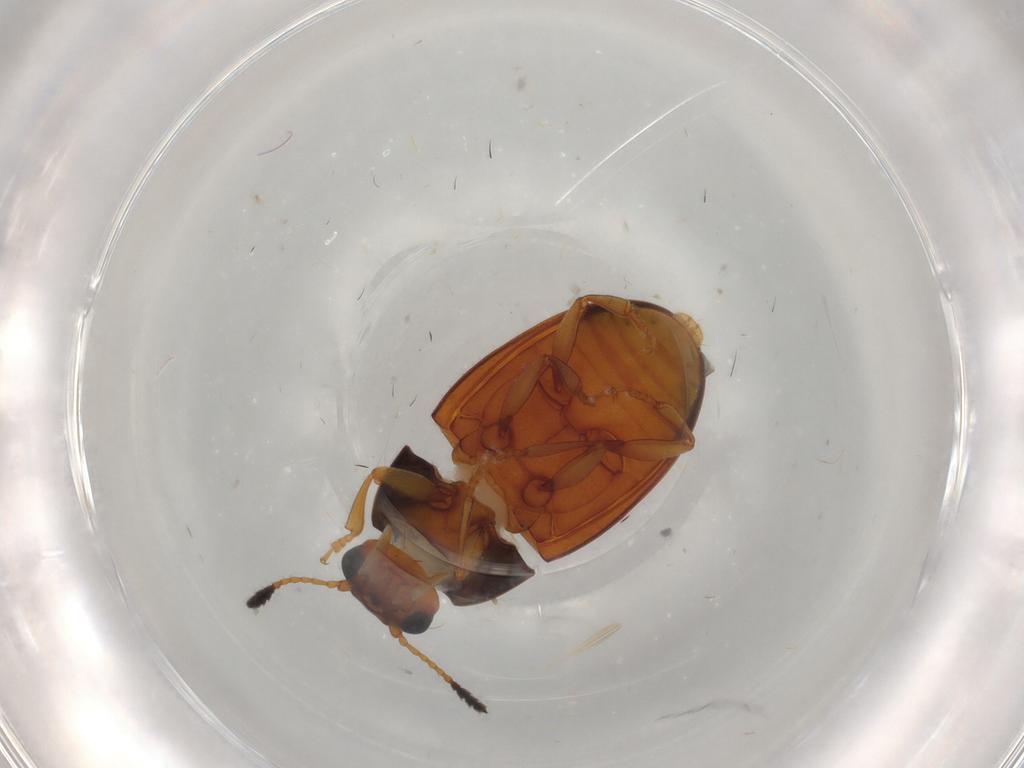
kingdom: Animalia
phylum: Arthropoda
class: Insecta
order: Coleoptera
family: Erotylidae
